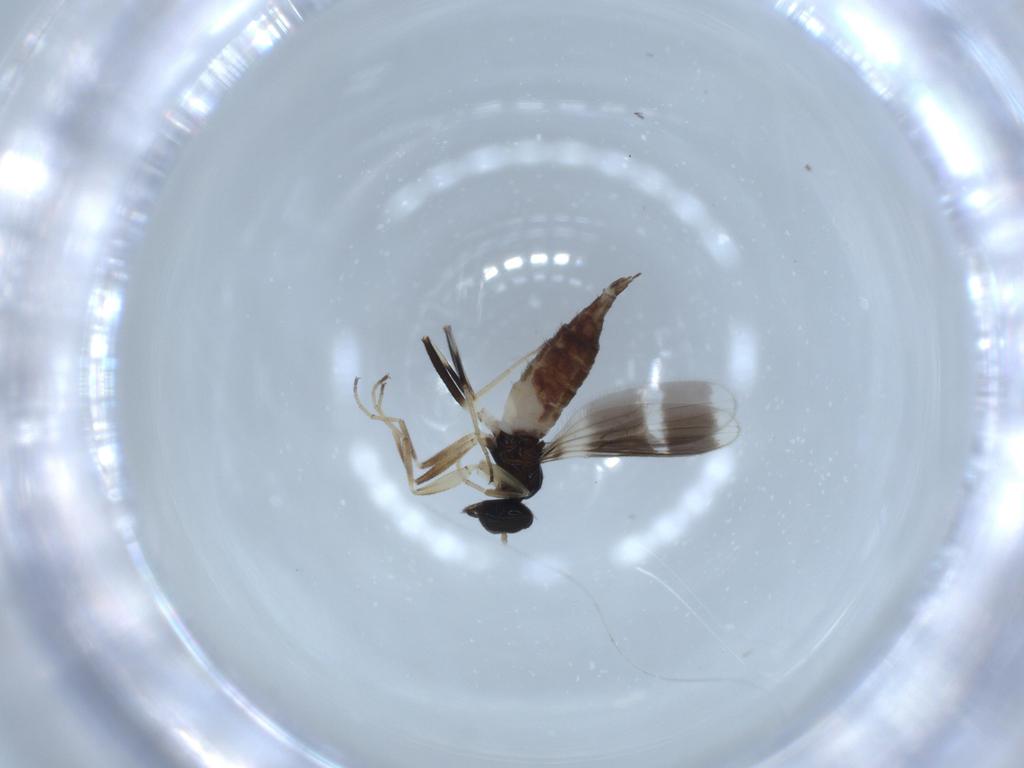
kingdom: Animalia
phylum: Arthropoda
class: Insecta
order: Diptera
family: Hybotidae
